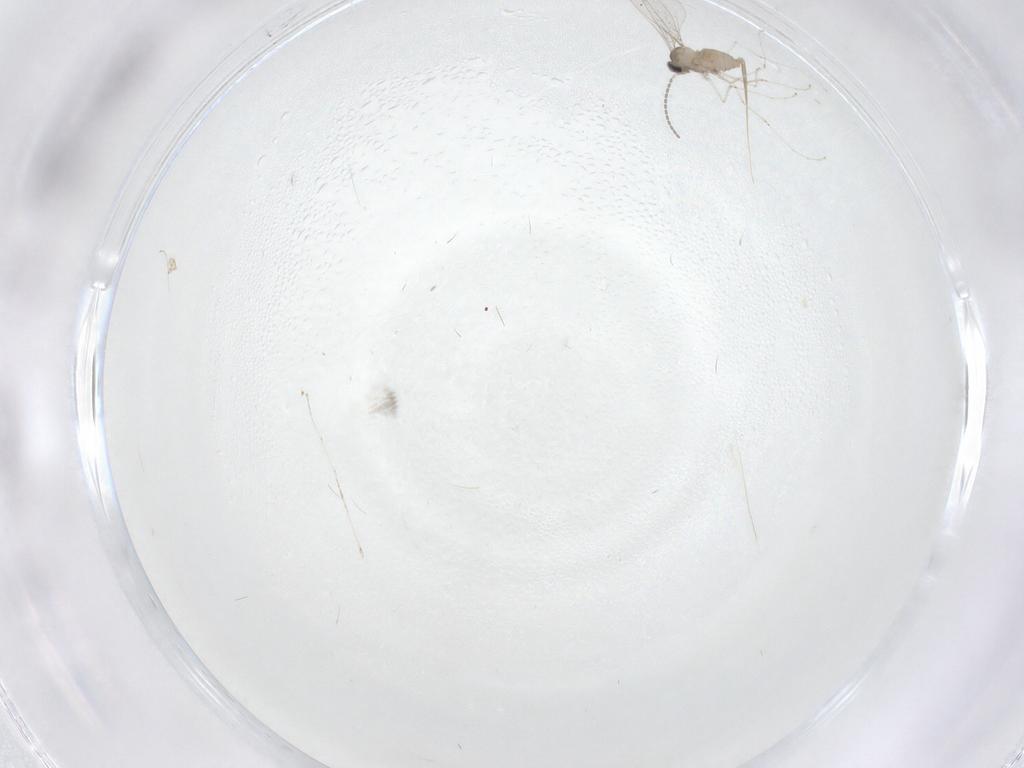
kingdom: Animalia
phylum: Arthropoda
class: Insecta
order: Diptera
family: Cecidomyiidae
